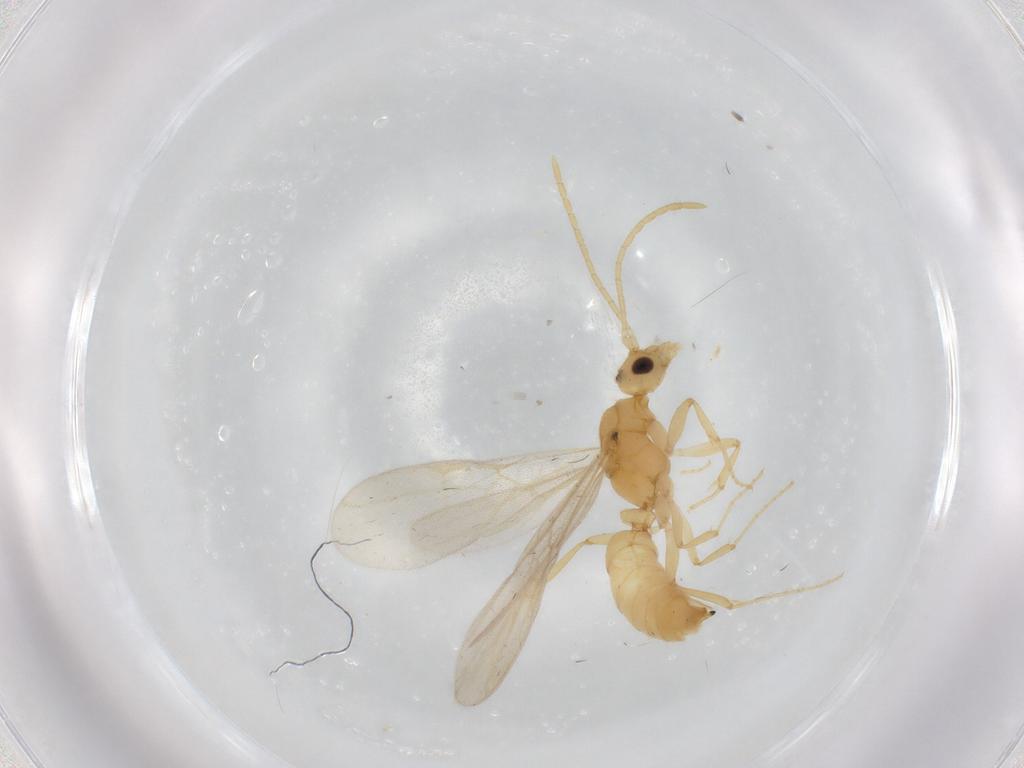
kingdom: Animalia
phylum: Arthropoda
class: Insecta
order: Hymenoptera
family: Formicidae
